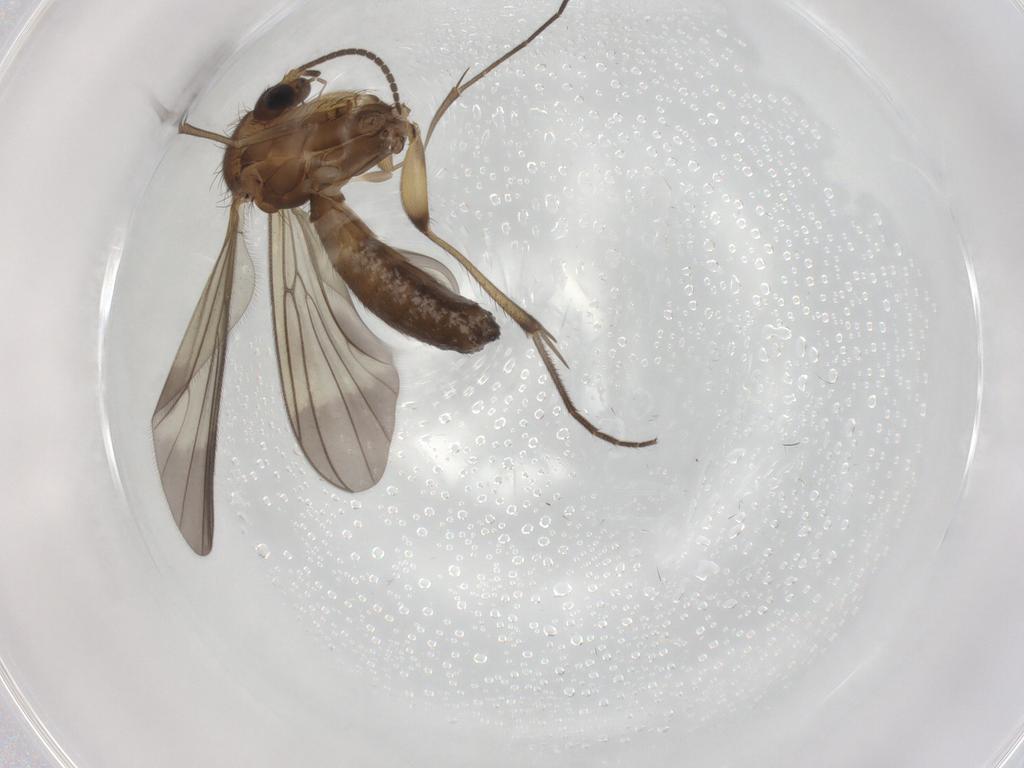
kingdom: Animalia
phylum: Arthropoda
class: Insecta
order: Diptera
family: Mycetophilidae
